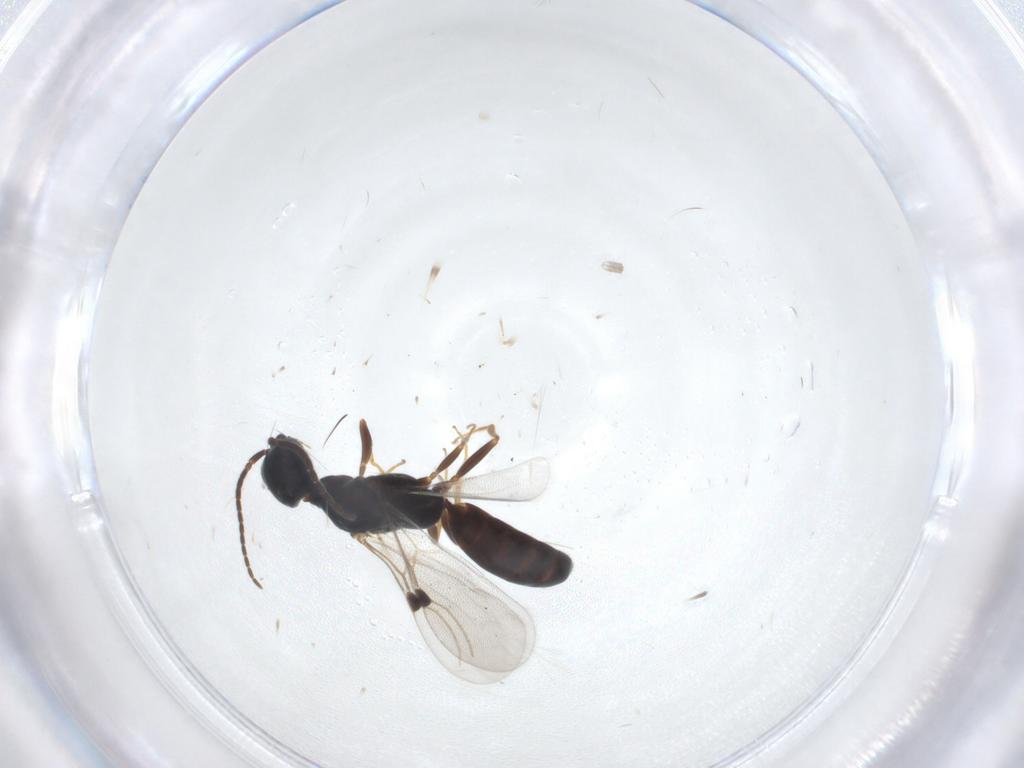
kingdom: Animalia
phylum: Arthropoda
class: Insecta
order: Hymenoptera
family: Bethylidae
